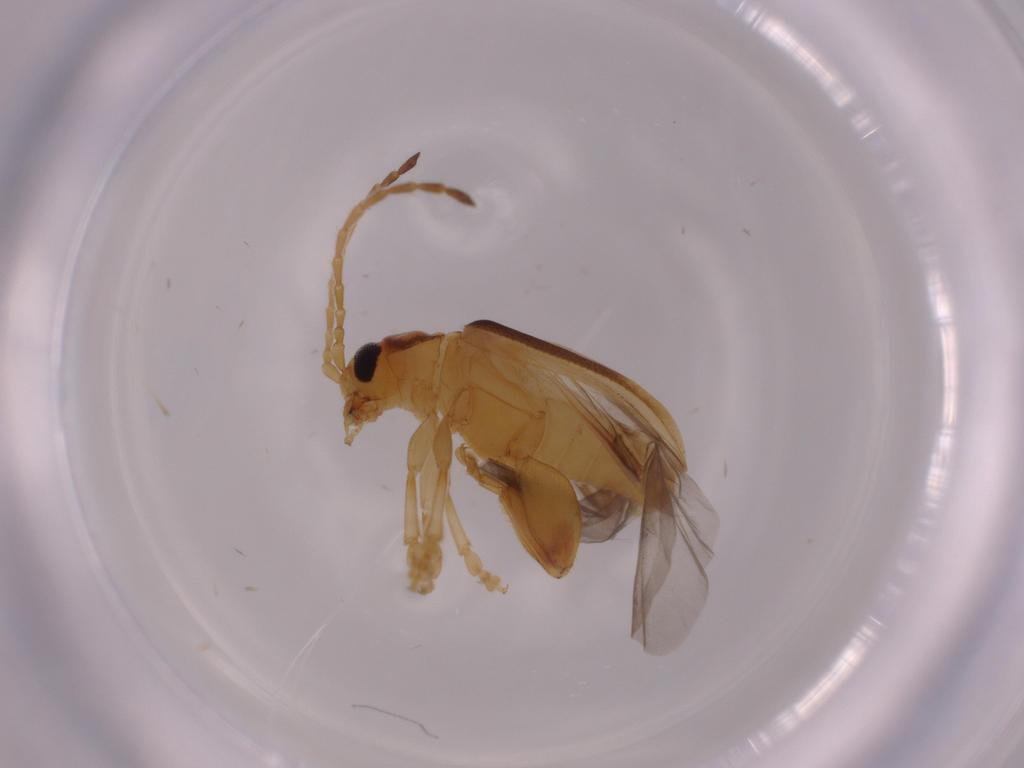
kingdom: Animalia
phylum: Arthropoda
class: Insecta
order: Coleoptera
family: Chrysomelidae
